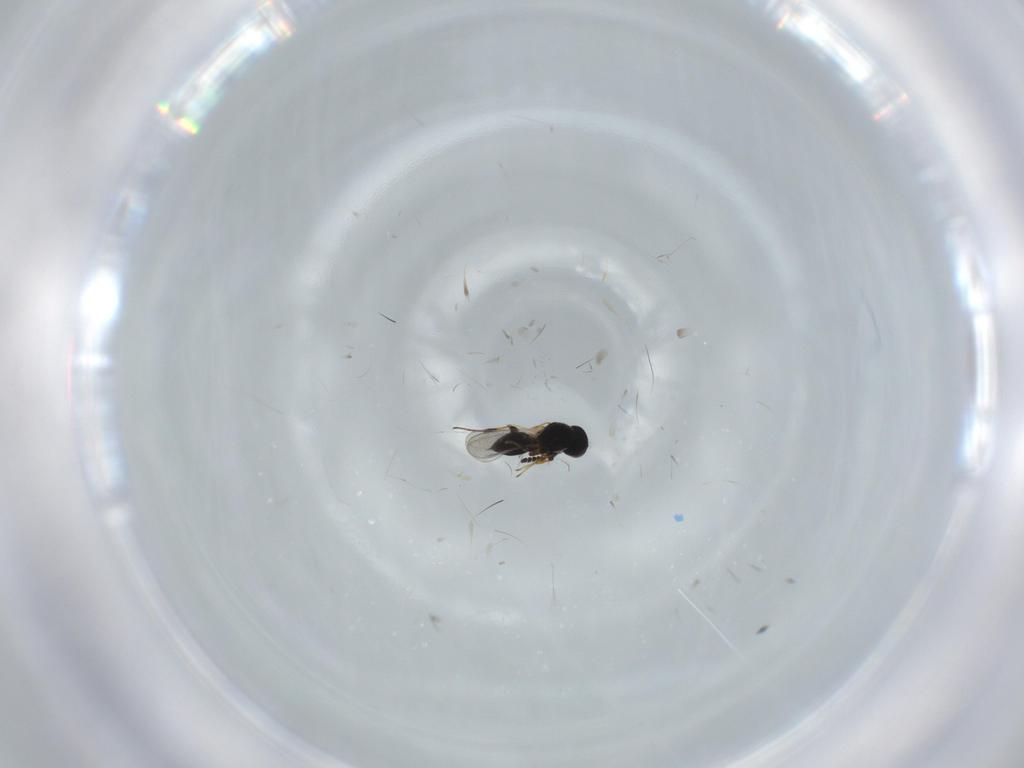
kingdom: Animalia
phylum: Arthropoda
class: Insecta
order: Hymenoptera
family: Platygastridae
